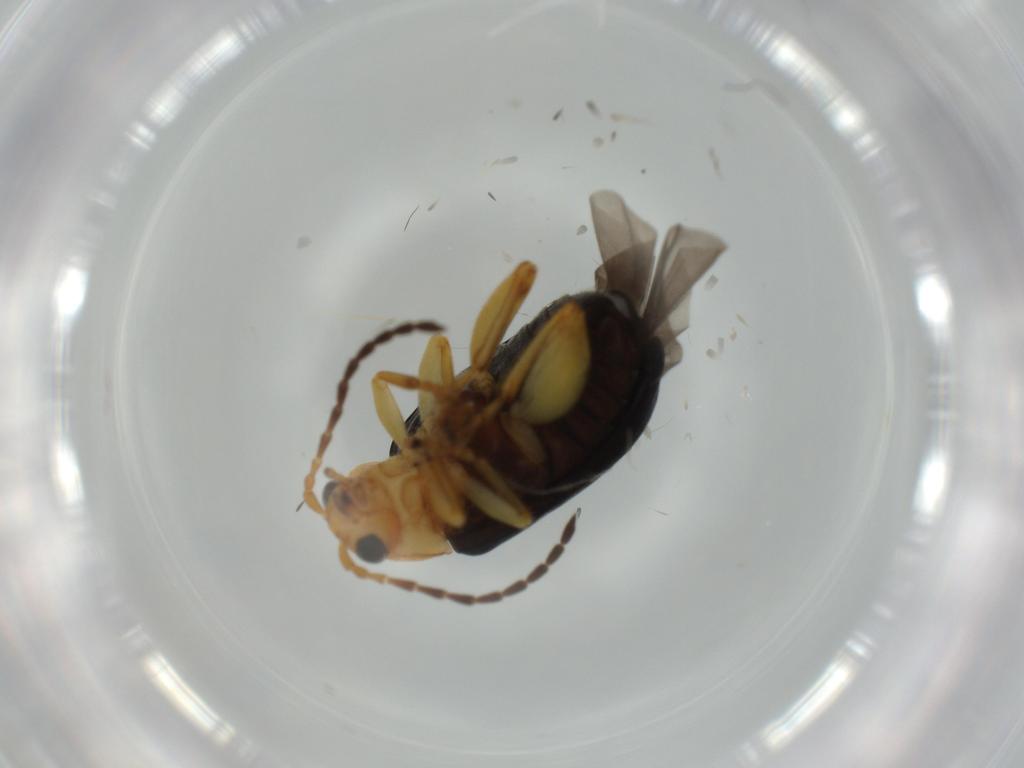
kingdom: Animalia
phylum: Arthropoda
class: Insecta
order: Coleoptera
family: Chrysomelidae
